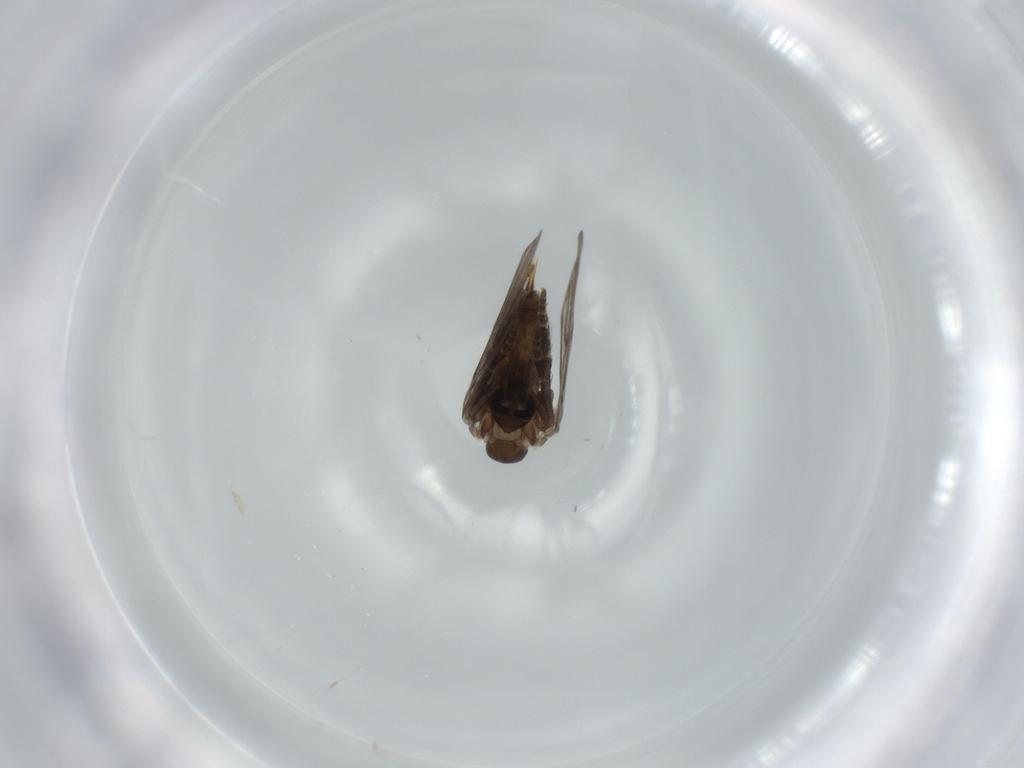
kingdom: Animalia
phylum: Arthropoda
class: Insecta
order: Diptera
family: Psychodidae
